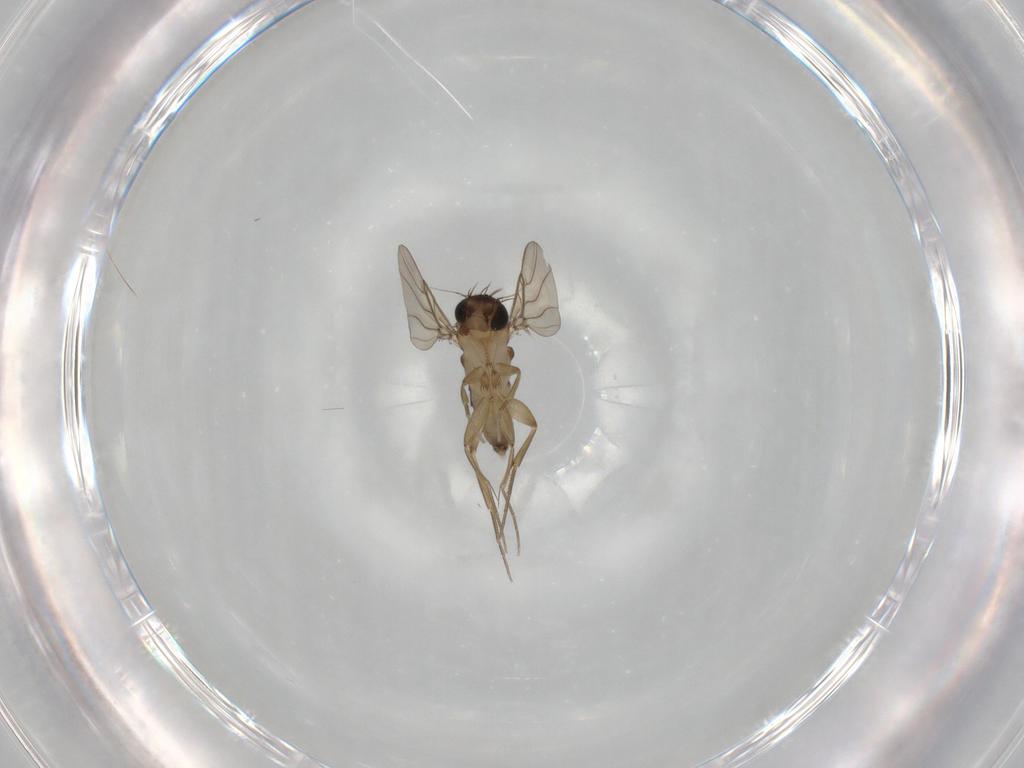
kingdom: Animalia
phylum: Arthropoda
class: Insecta
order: Diptera
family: Phoridae
